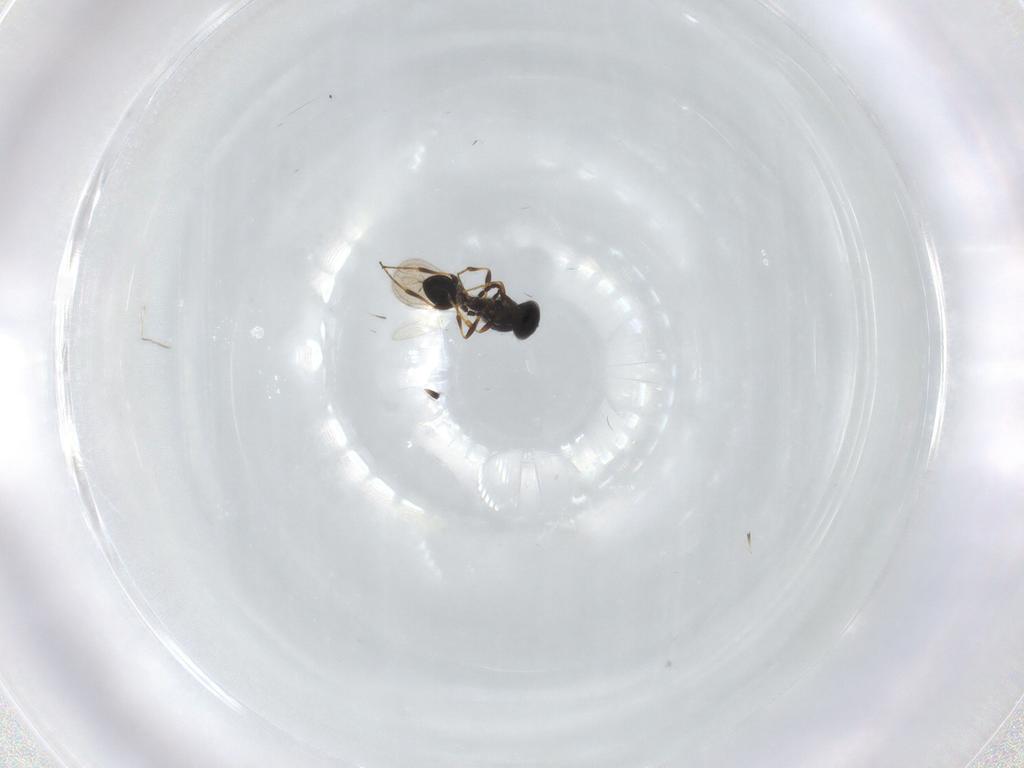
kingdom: Animalia
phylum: Arthropoda
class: Insecta
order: Hymenoptera
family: Platygastridae
